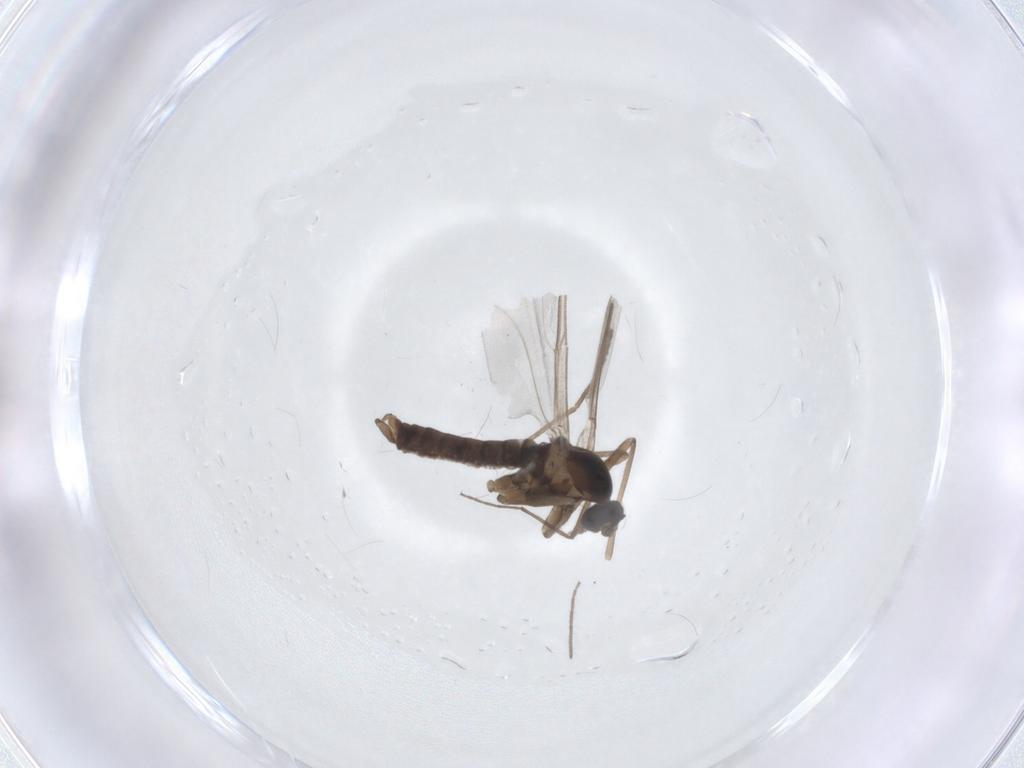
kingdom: Animalia
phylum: Arthropoda
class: Insecta
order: Diptera
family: Cecidomyiidae
